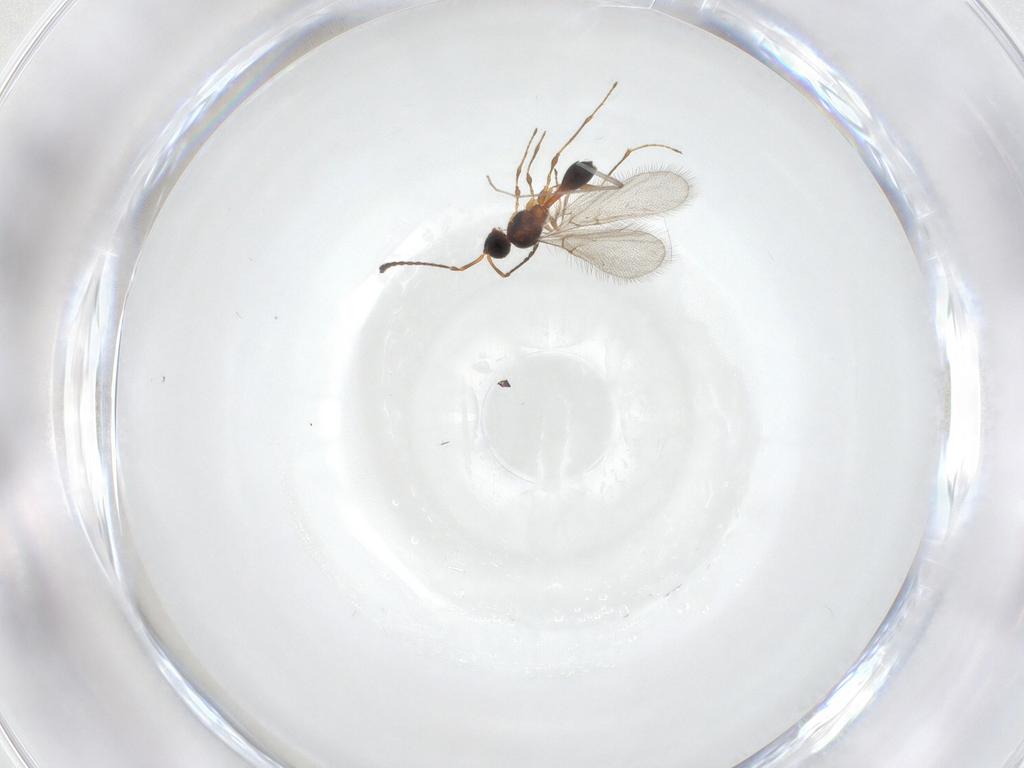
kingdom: Animalia
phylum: Arthropoda
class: Insecta
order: Hymenoptera
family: Diapriidae
